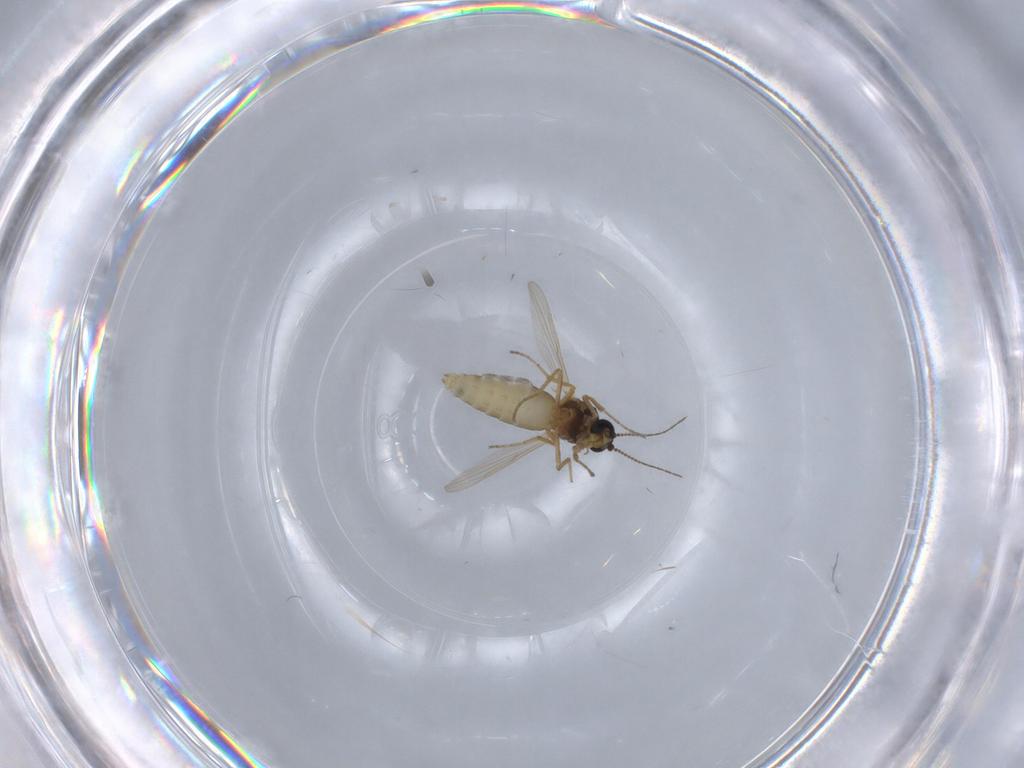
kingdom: Animalia
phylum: Arthropoda
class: Insecta
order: Diptera
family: Ceratopogonidae
